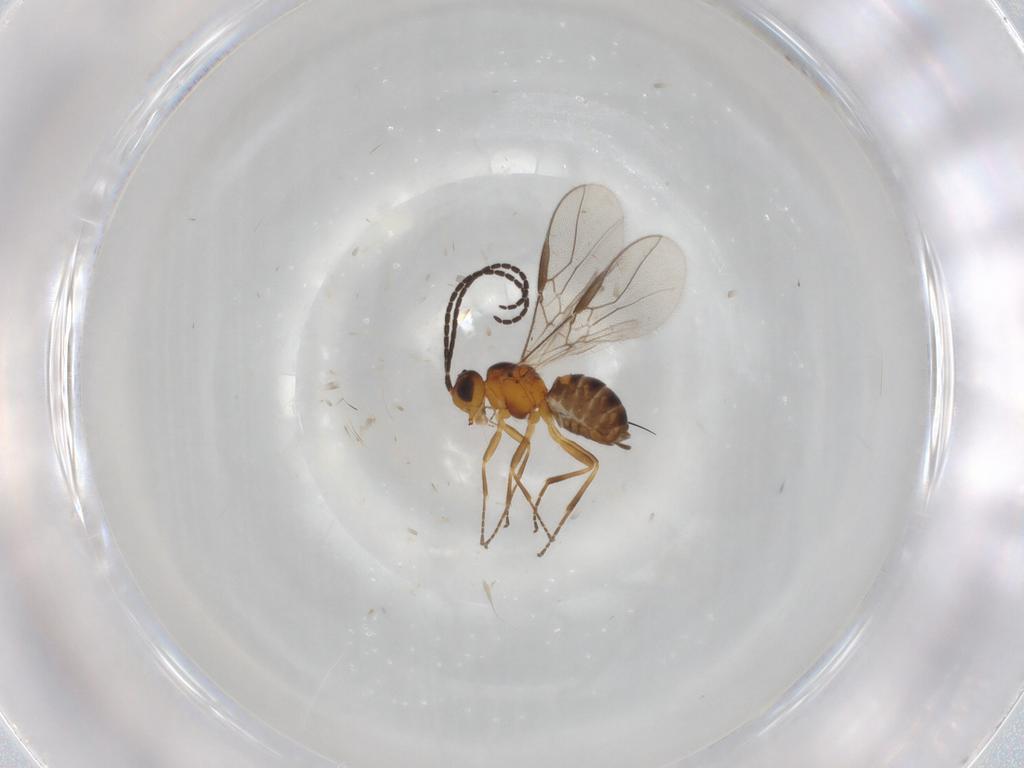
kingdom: Animalia
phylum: Arthropoda
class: Insecta
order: Hymenoptera
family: Braconidae
